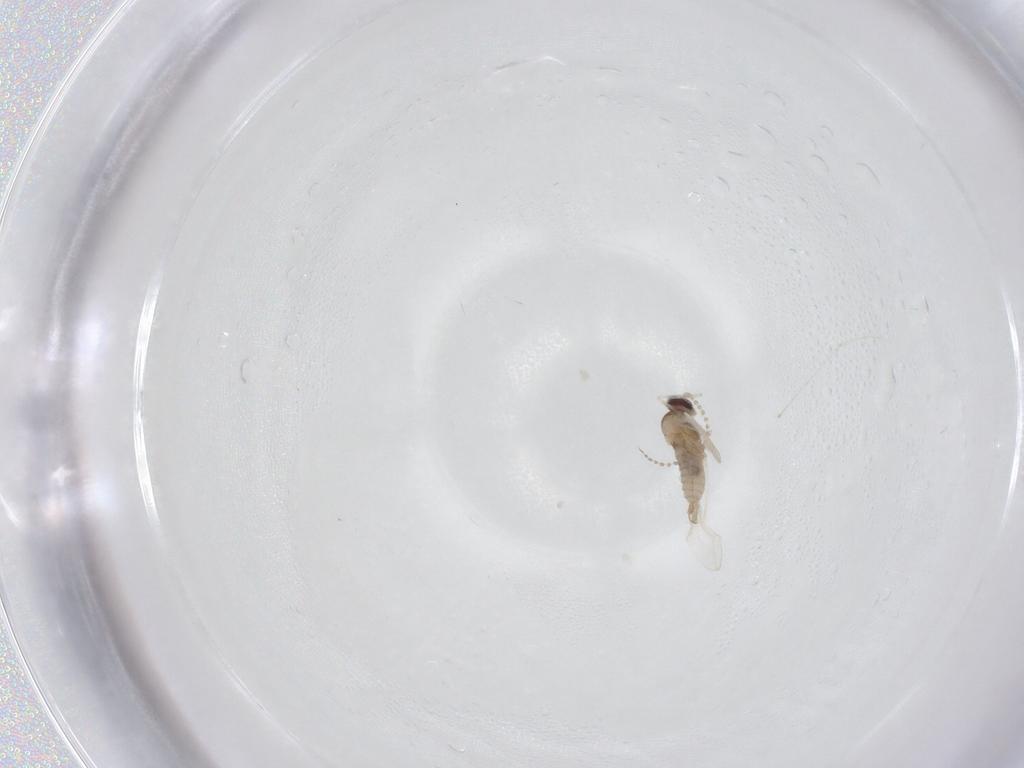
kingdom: Animalia
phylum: Arthropoda
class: Insecta
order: Diptera
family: Cecidomyiidae
